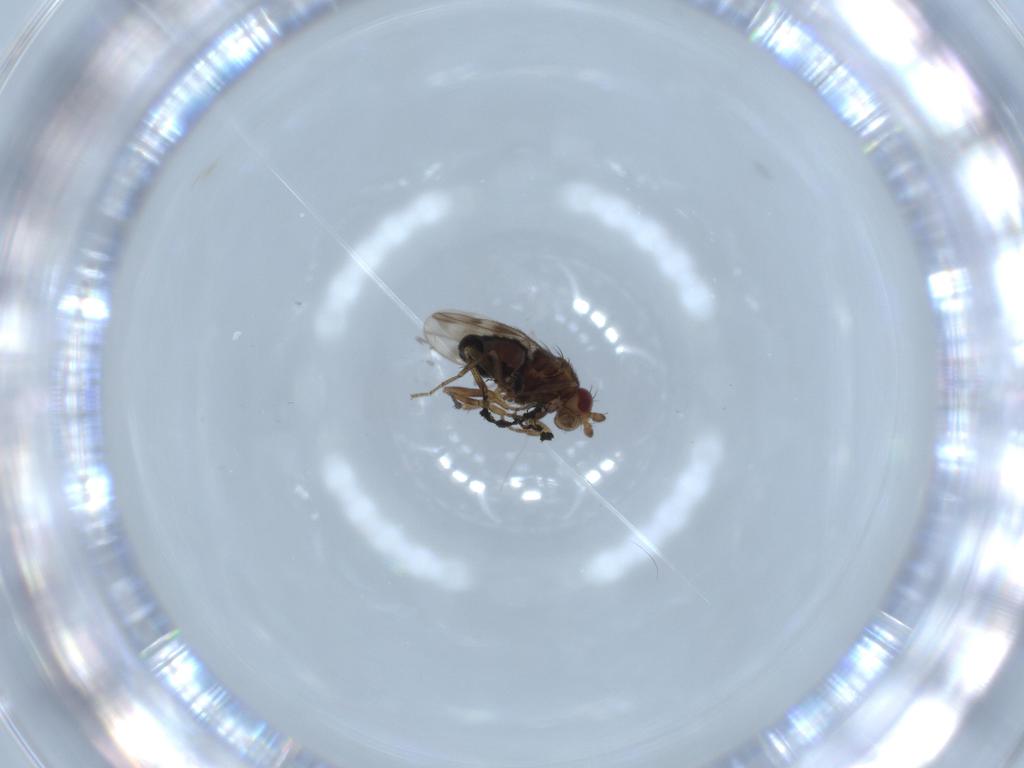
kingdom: Animalia
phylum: Arthropoda
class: Insecta
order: Diptera
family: Sphaeroceridae
